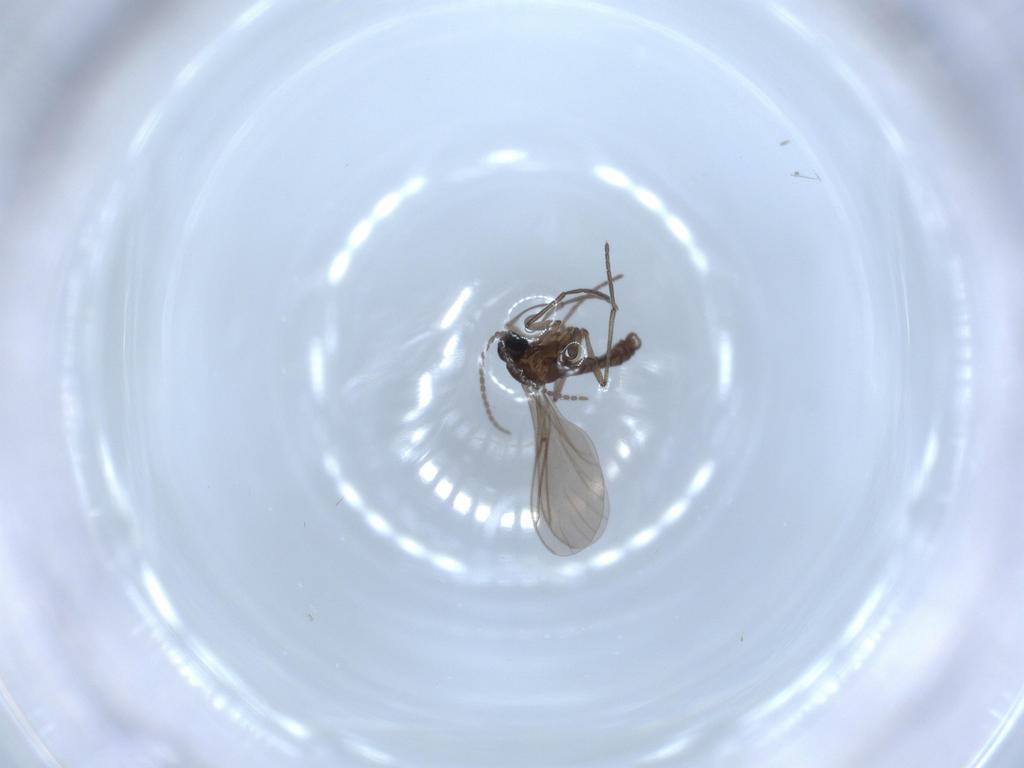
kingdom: Animalia
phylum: Arthropoda
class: Insecta
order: Diptera
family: Sciaridae
